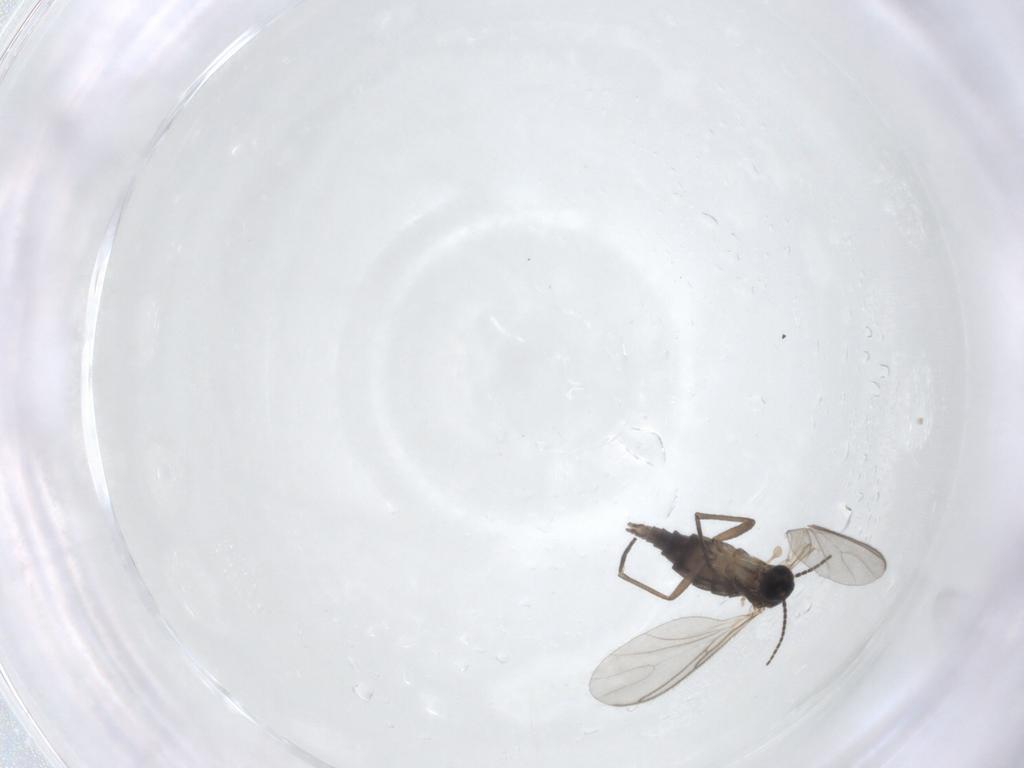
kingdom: Animalia
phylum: Arthropoda
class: Insecta
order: Diptera
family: Sciaridae
